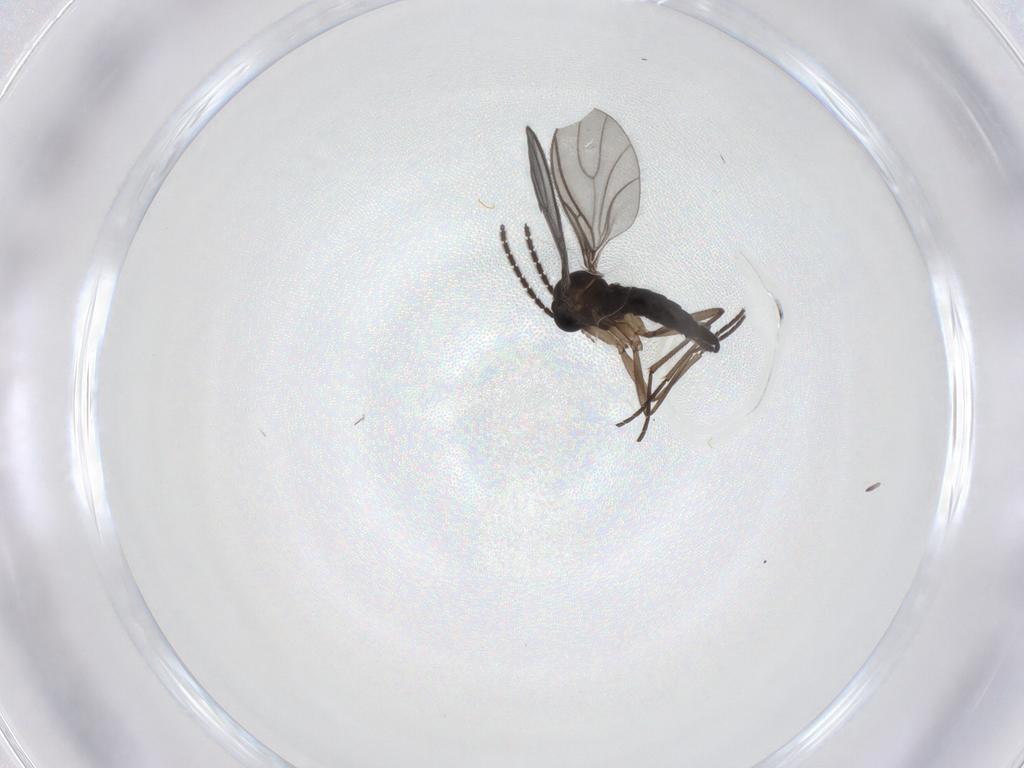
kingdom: Animalia
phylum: Arthropoda
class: Insecta
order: Diptera
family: Sciaridae
